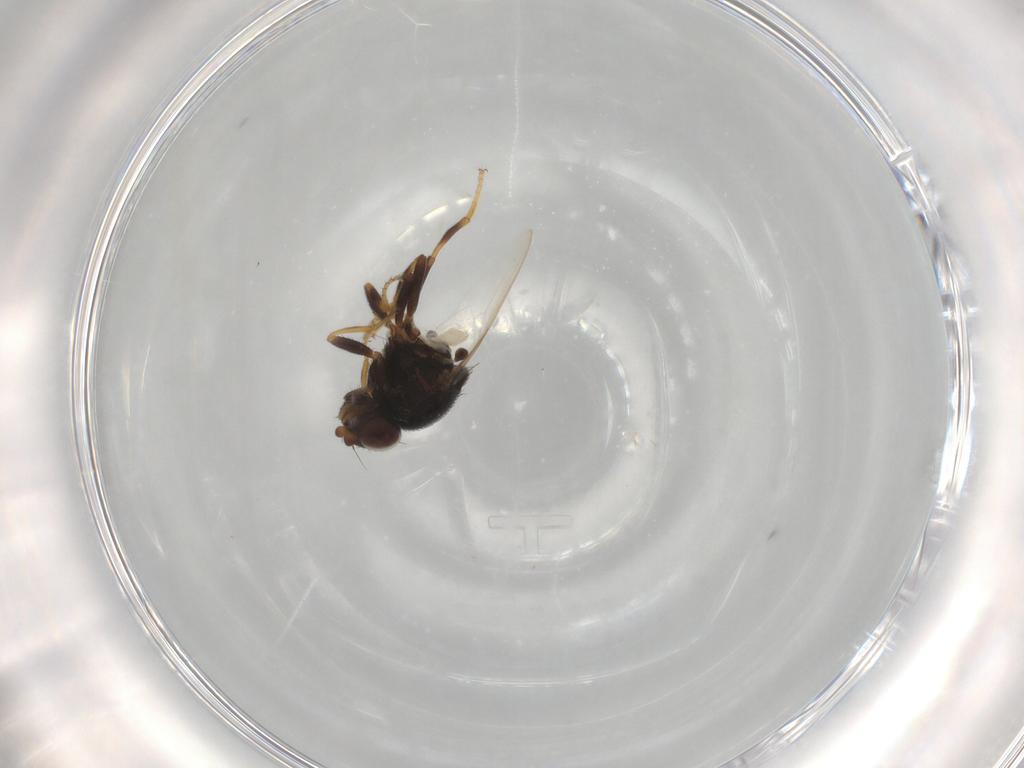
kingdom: Animalia
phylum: Arthropoda
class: Insecta
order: Diptera
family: Chloropidae
